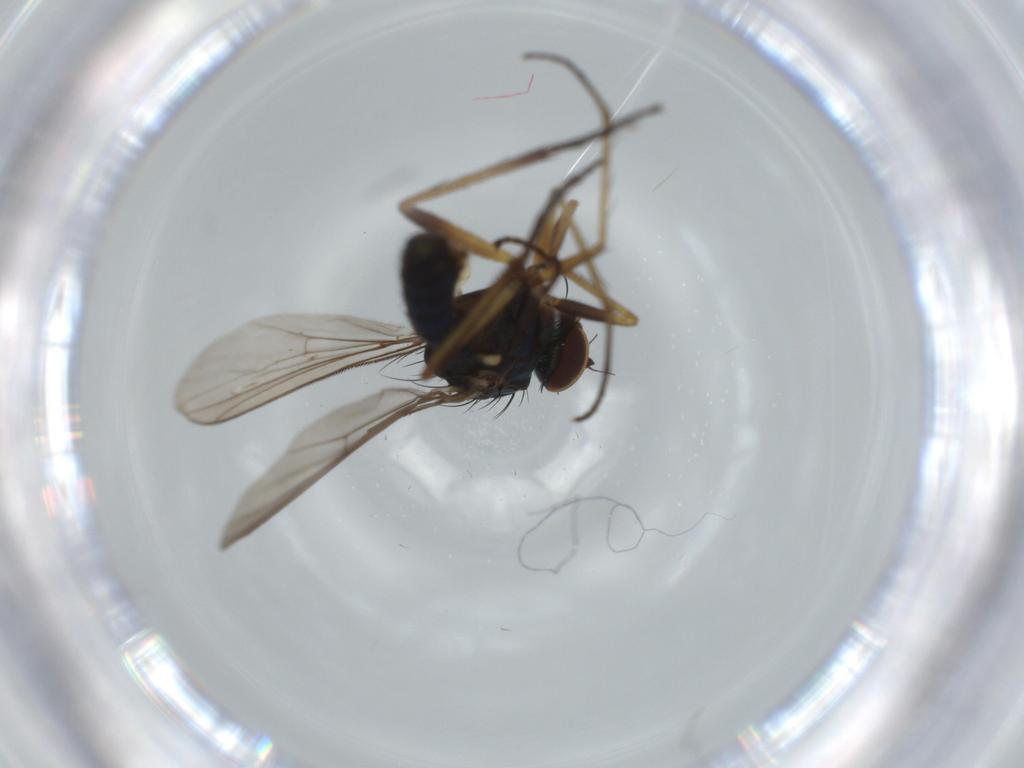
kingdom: Animalia
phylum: Arthropoda
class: Insecta
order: Diptera
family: Dolichopodidae
